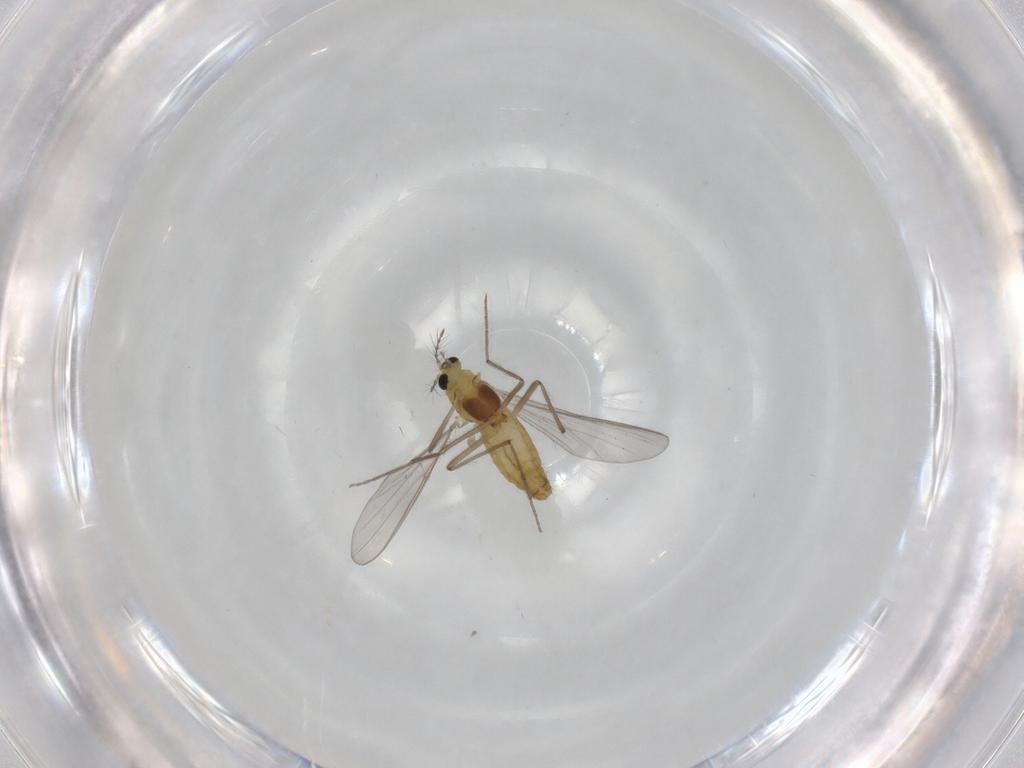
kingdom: Animalia
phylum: Arthropoda
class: Insecta
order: Diptera
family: Chironomidae
